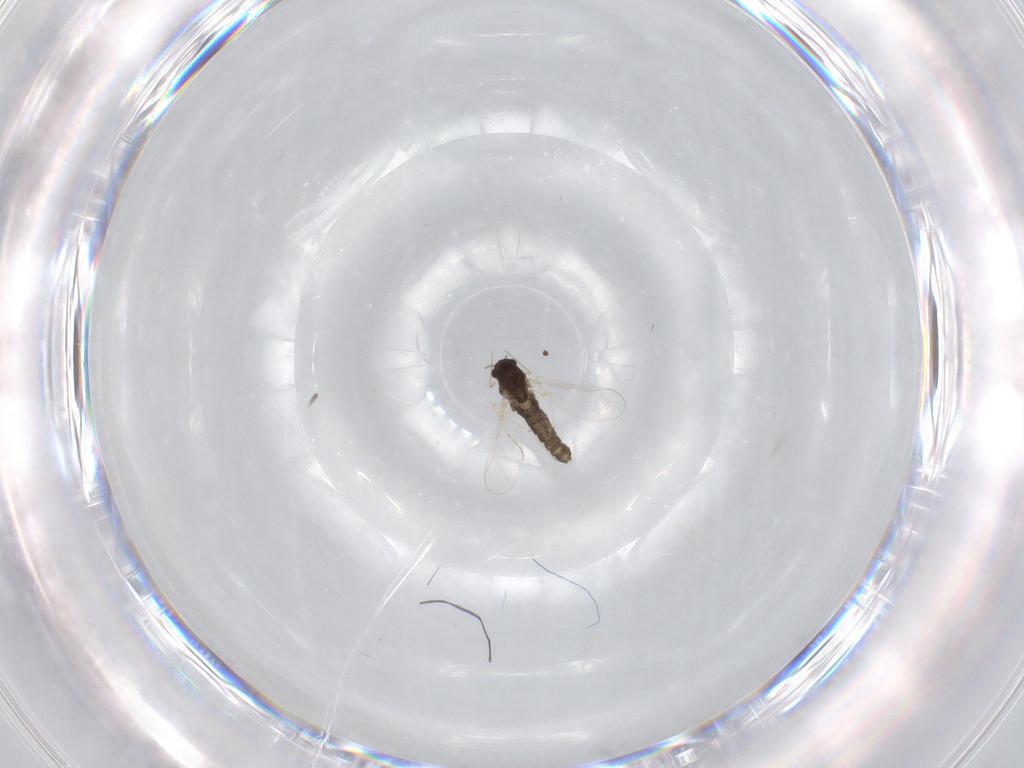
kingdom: Animalia
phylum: Arthropoda
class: Insecta
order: Diptera
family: Chironomidae
